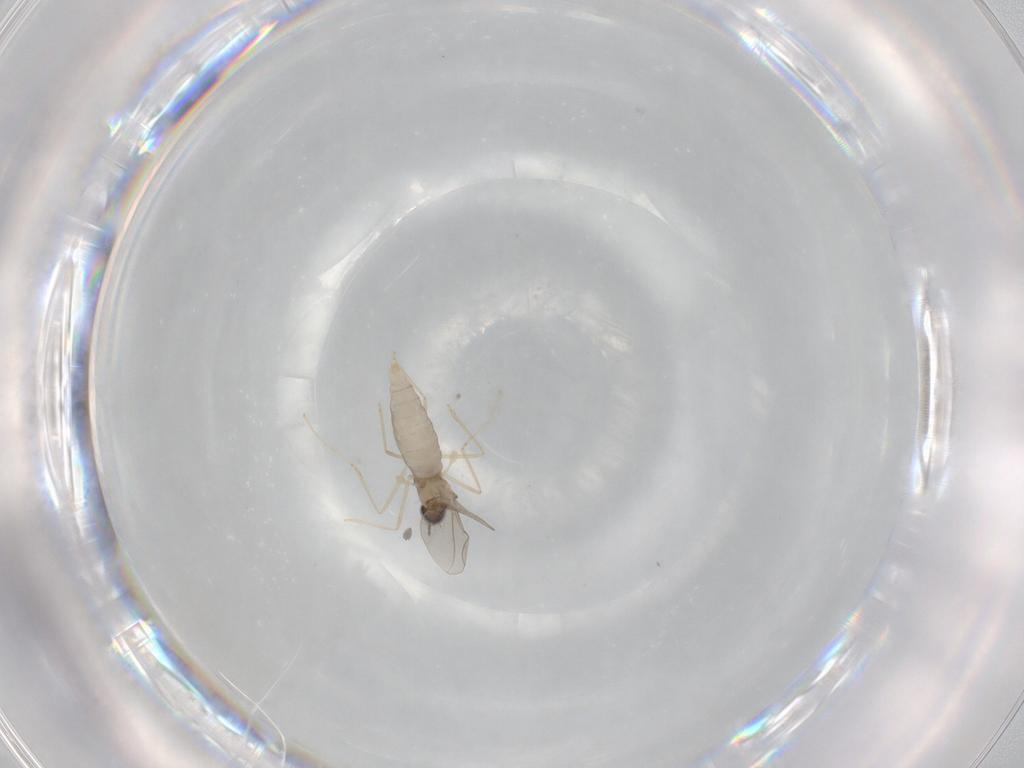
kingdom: Animalia
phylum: Arthropoda
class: Insecta
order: Diptera
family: Cecidomyiidae
